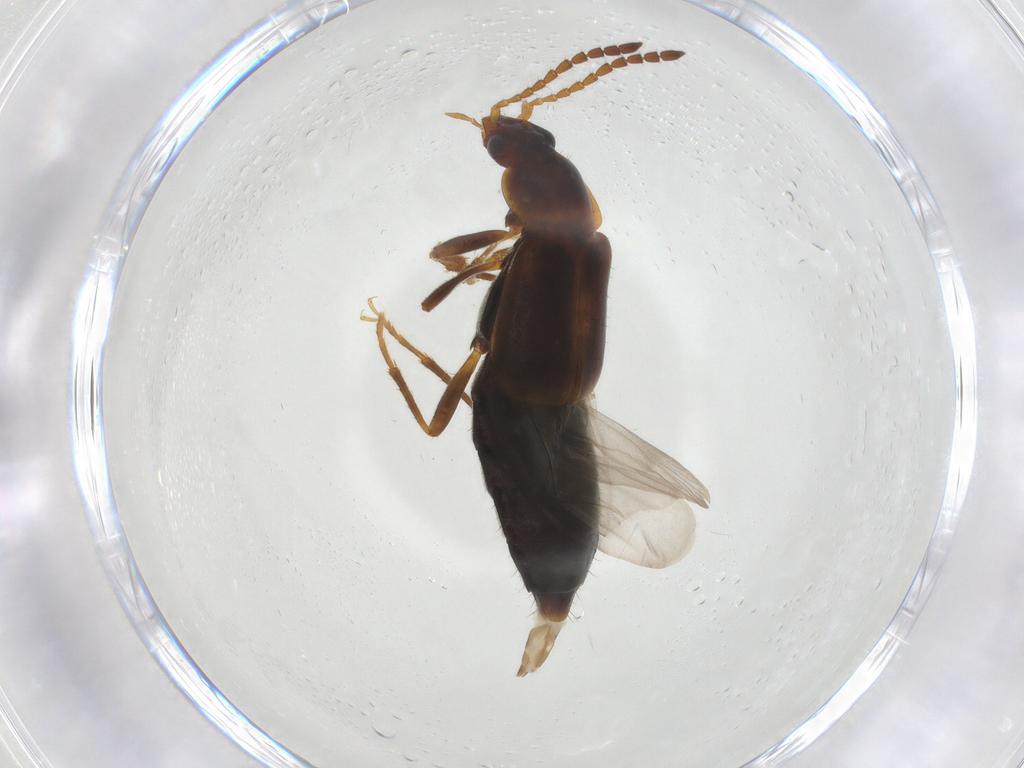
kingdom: Animalia
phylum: Arthropoda
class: Insecta
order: Coleoptera
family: Staphylinidae
